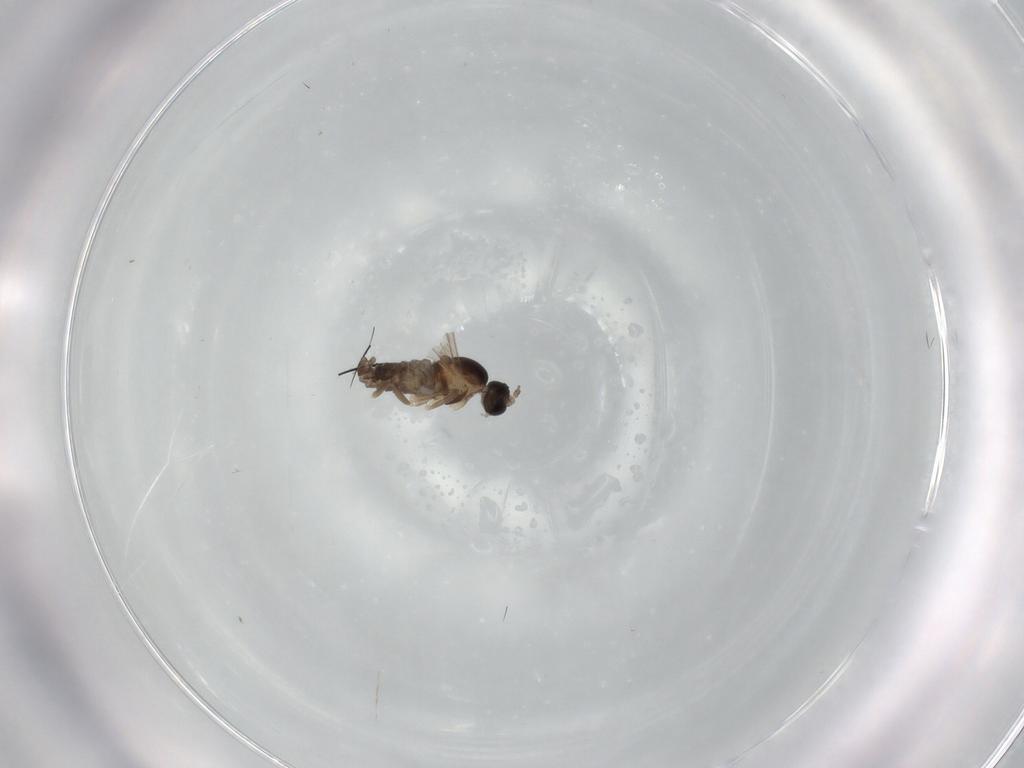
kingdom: Animalia
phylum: Arthropoda
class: Insecta
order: Diptera
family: Cecidomyiidae
